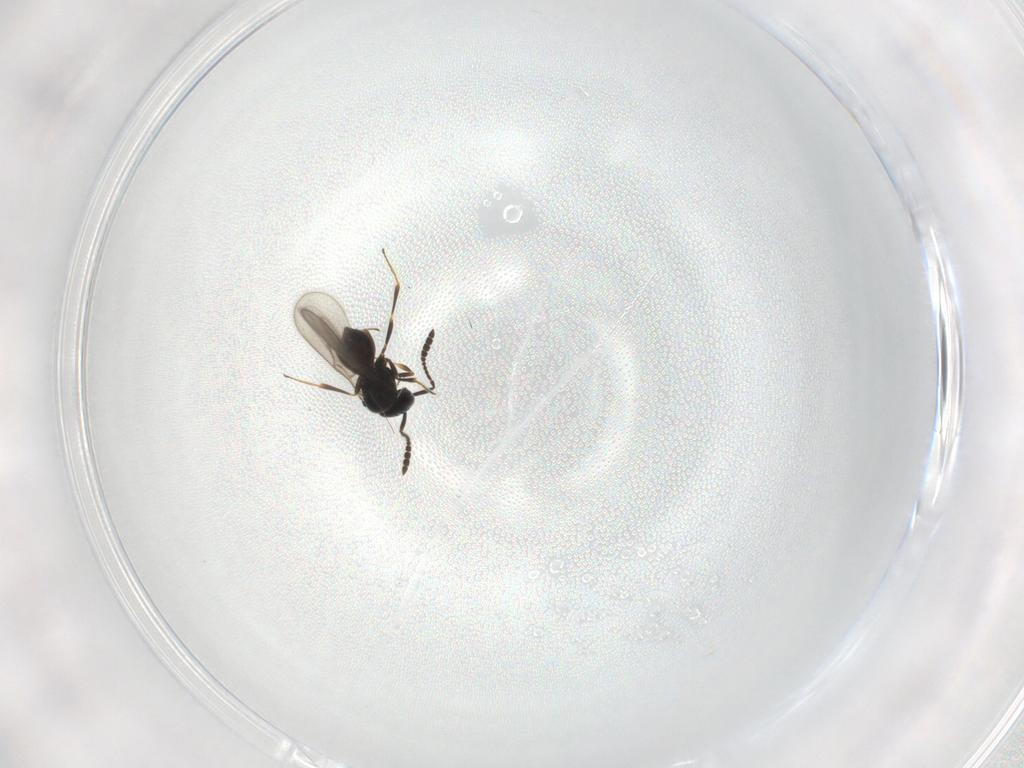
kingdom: Animalia
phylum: Arthropoda
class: Insecta
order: Hymenoptera
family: Scelionidae
